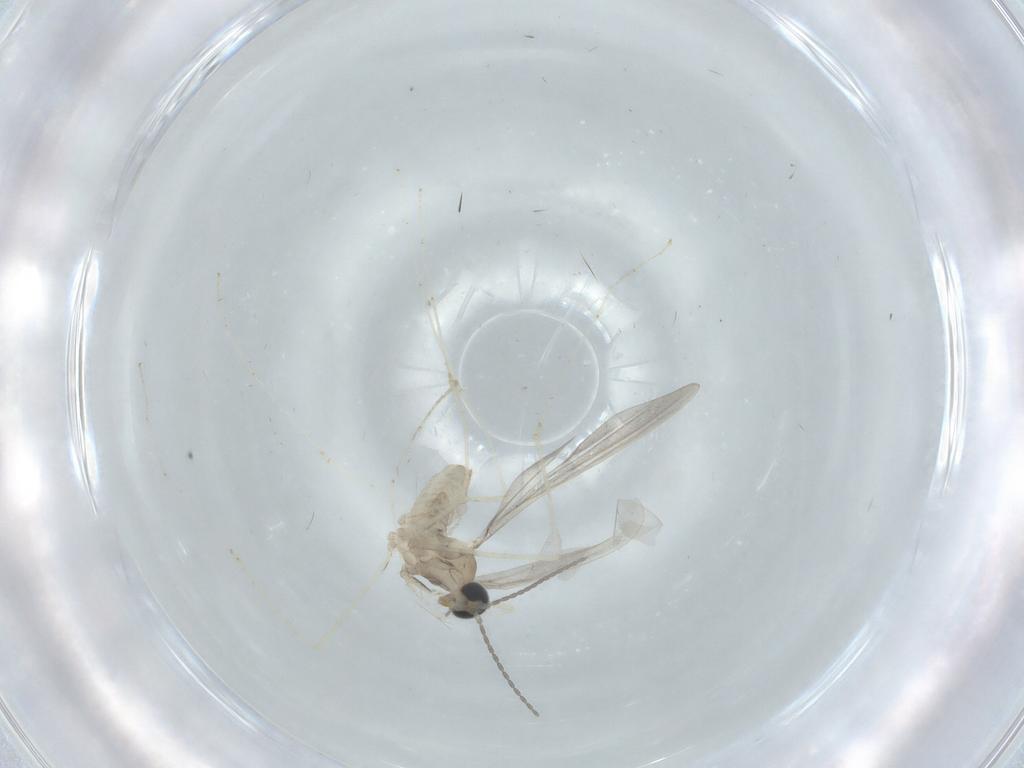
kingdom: Animalia
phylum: Arthropoda
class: Insecta
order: Diptera
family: Cecidomyiidae
